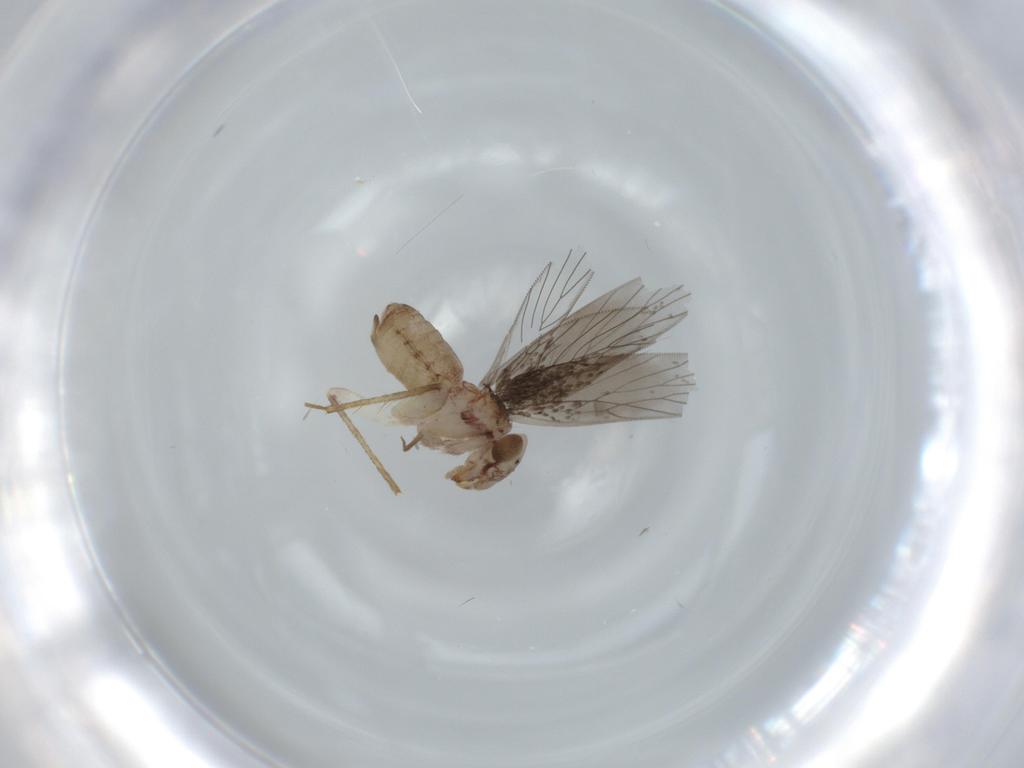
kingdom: Animalia
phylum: Arthropoda
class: Insecta
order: Psocodea
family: Lepidopsocidae
